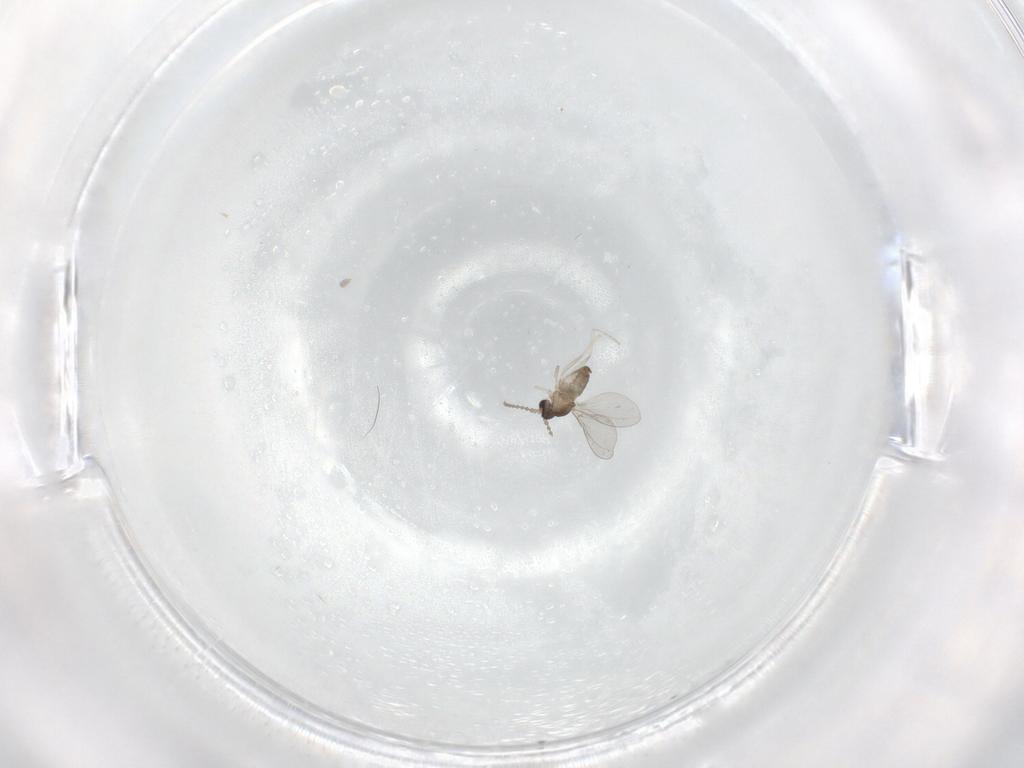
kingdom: Animalia
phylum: Arthropoda
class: Insecta
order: Diptera
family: Cecidomyiidae
